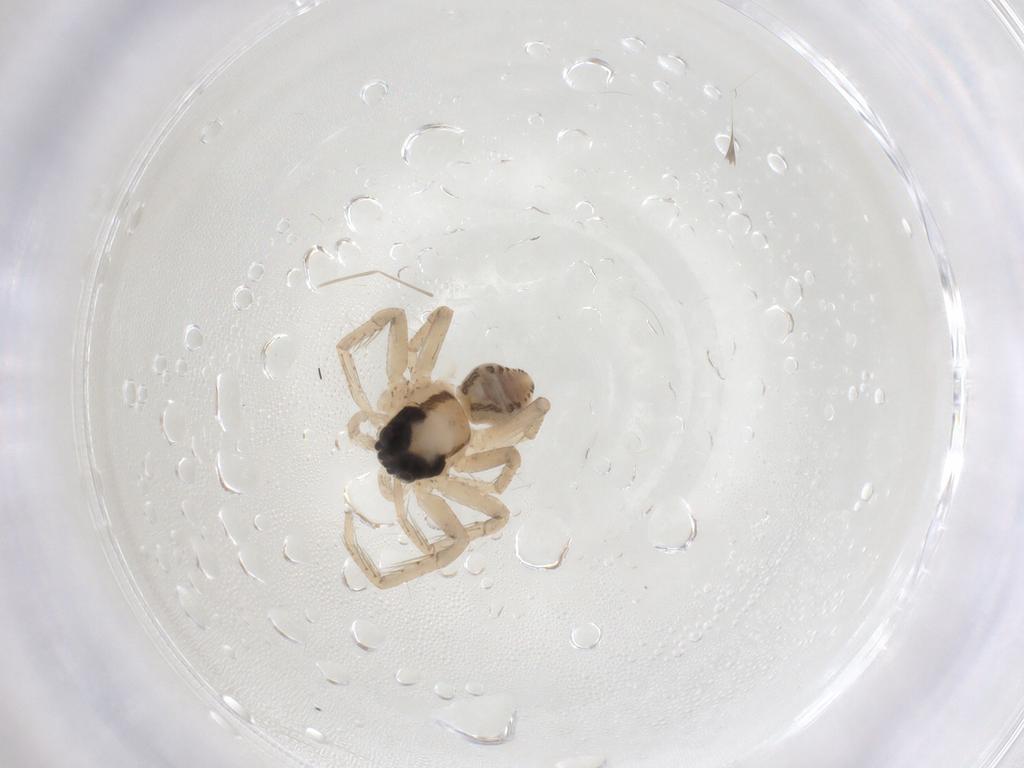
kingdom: Animalia
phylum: Arthropoda
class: Arachnida
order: Araneae
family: Lycosidae
